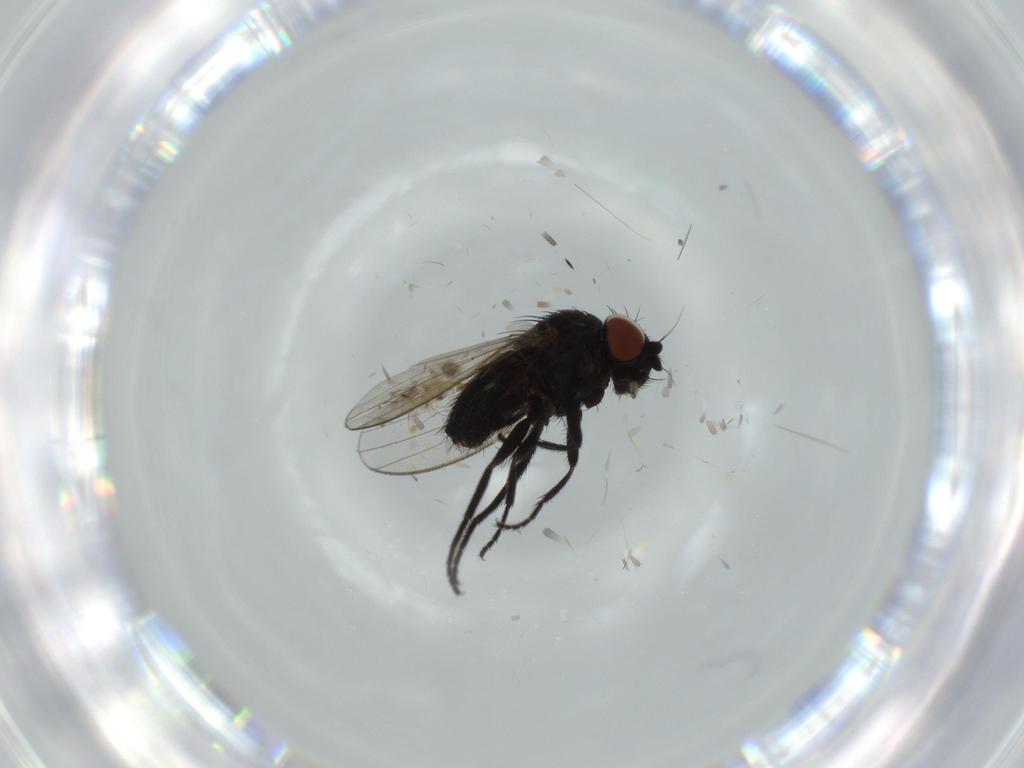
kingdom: Animalia
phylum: Arthropoda
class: Insecta
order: Diptera
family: Milichiidae
